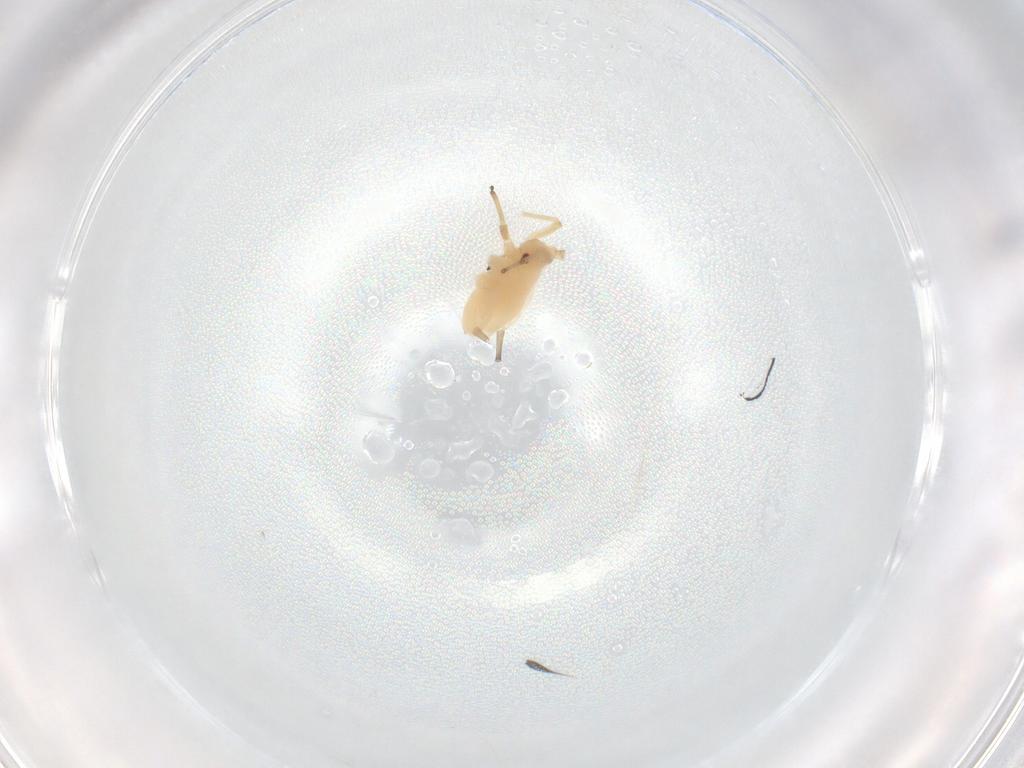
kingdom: Animalia
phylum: Arthropoda
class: Insecta
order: Hemiptera
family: Aphididae
